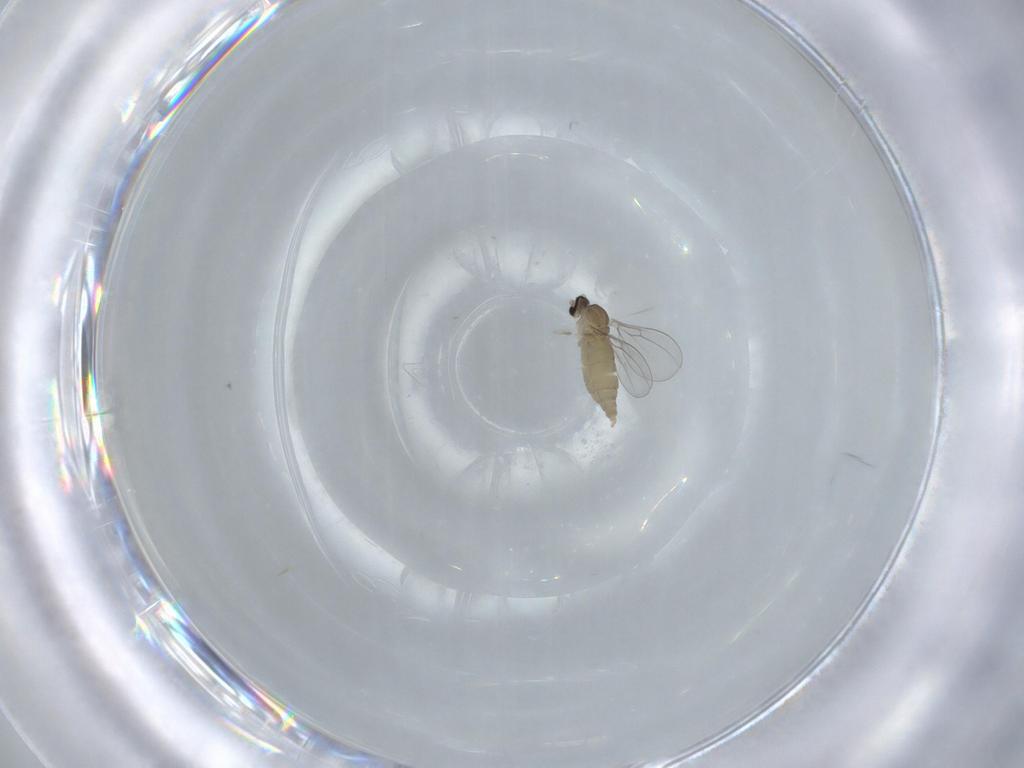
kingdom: Animalia
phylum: Arthropoda
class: Insecta
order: Diptera
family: Cecidomyiidae
